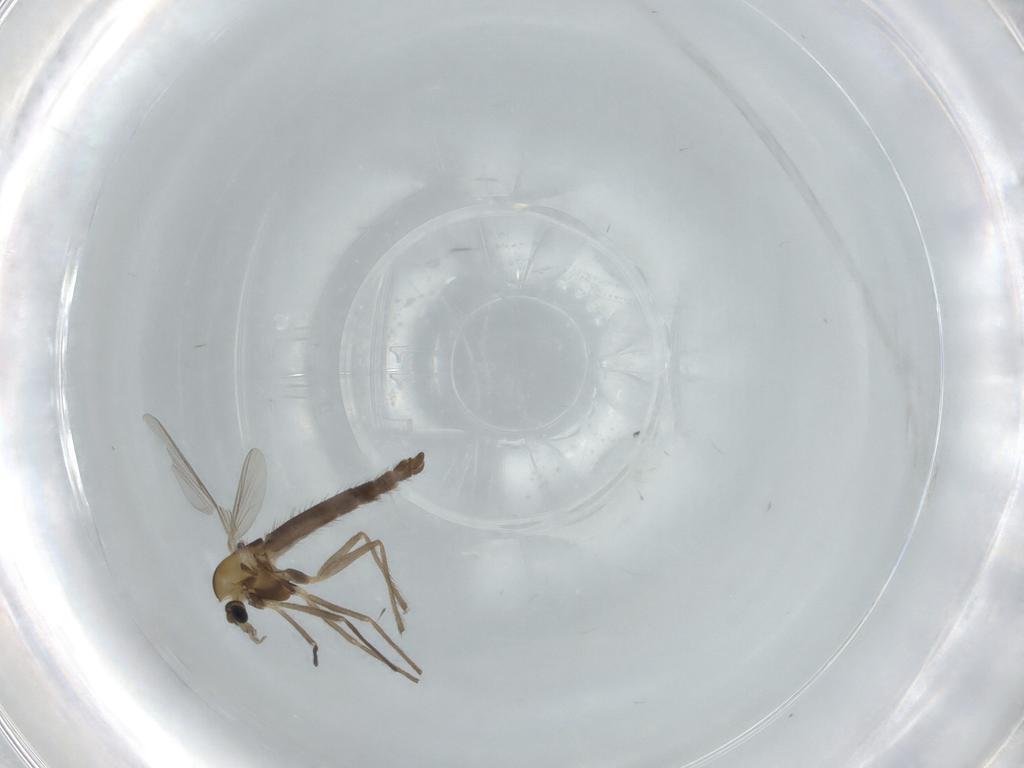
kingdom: Animalia
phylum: Arthropoda
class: Insecta
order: Diptera
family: Chironomidae
